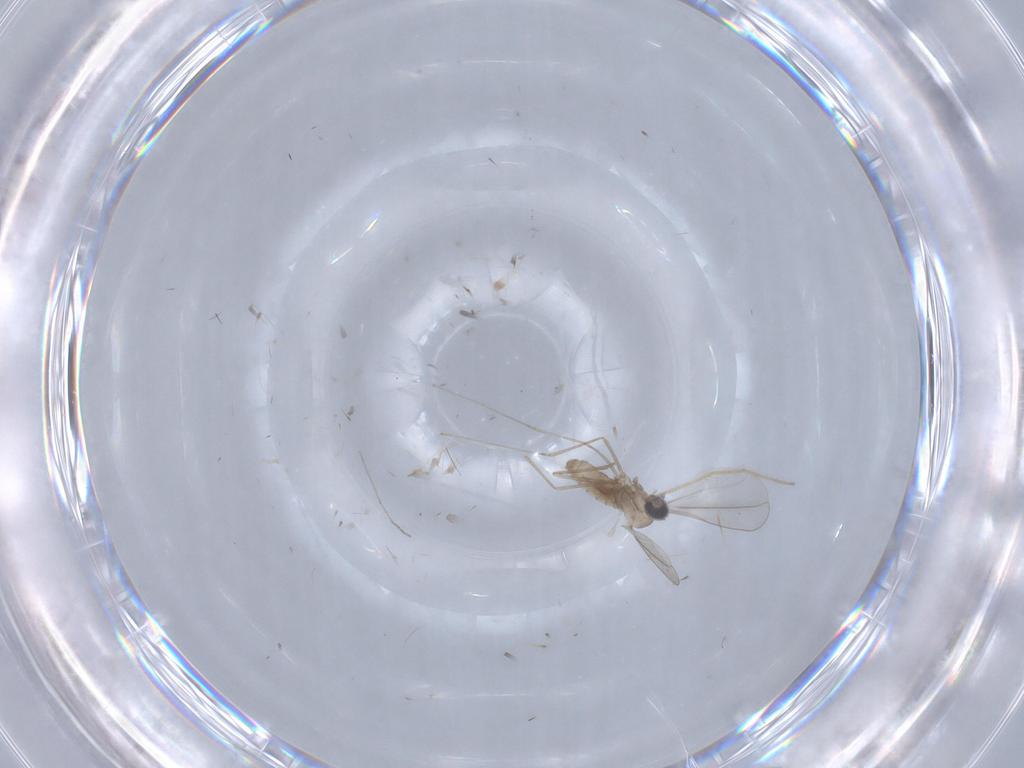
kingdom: Animalia
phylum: Arthropoda
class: Insecta
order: Diptera
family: Cecidomyiidae
